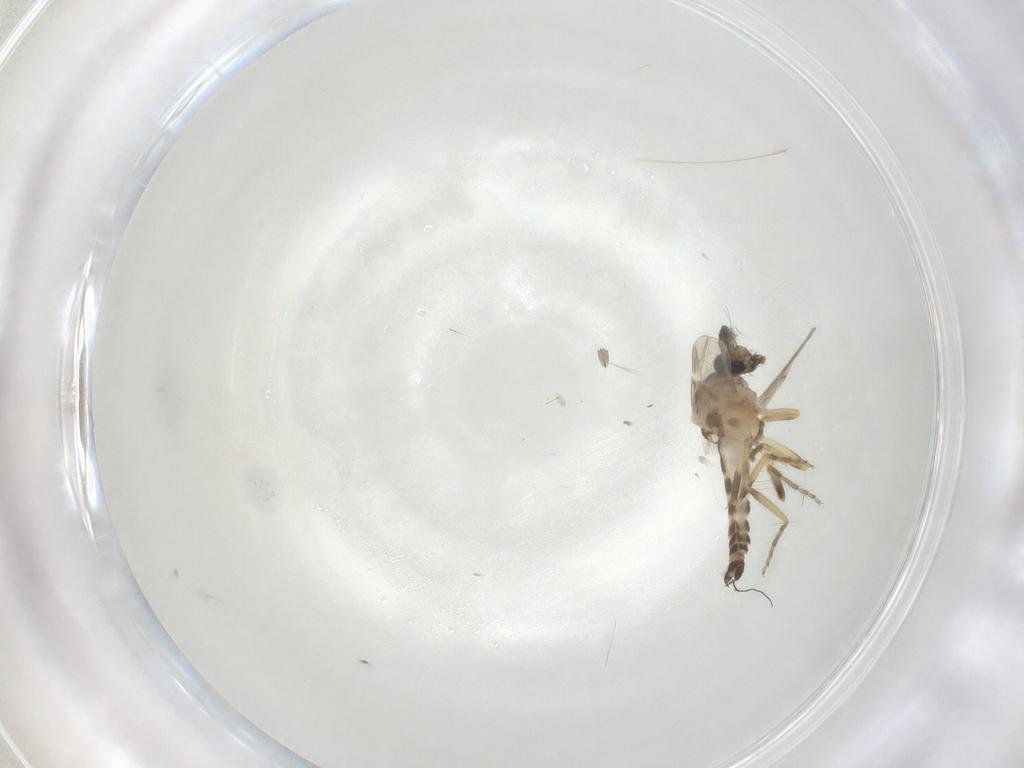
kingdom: Animalia
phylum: Arthropoda
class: Insecta
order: Diptera
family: Ceratopogonidae
